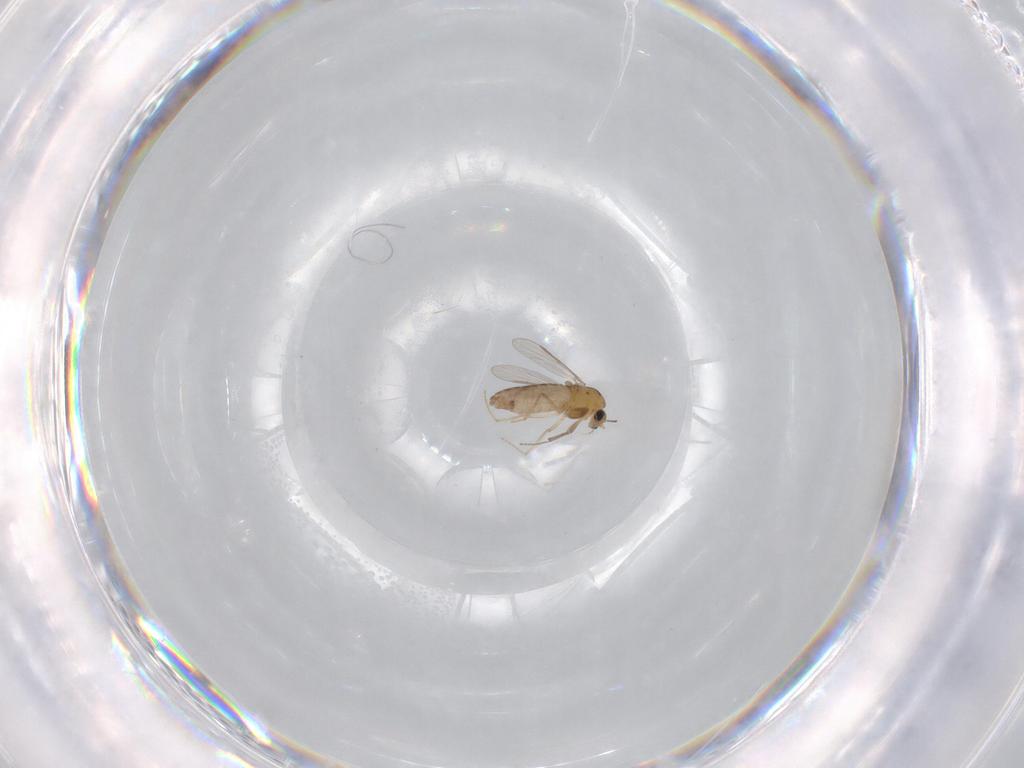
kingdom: Animalia
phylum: Arthropoda
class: Insecta
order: Diptera
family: Chironomidae
